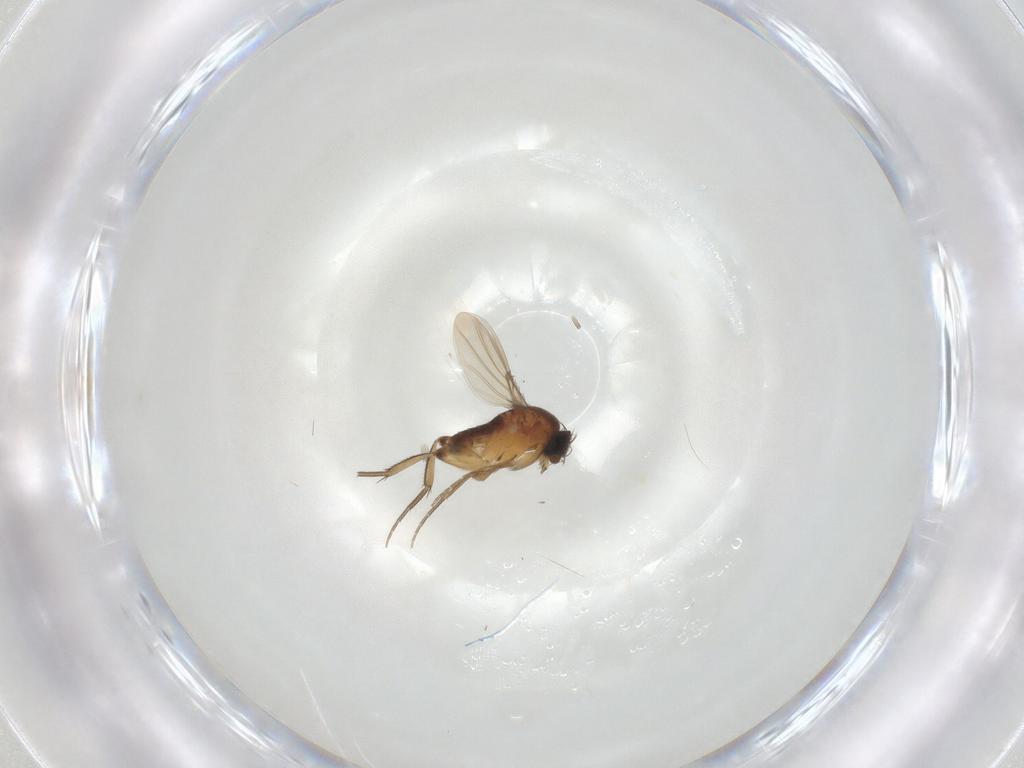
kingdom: Animalia
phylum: Arthropoda
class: Insecta
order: Diptera
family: Phoridae
